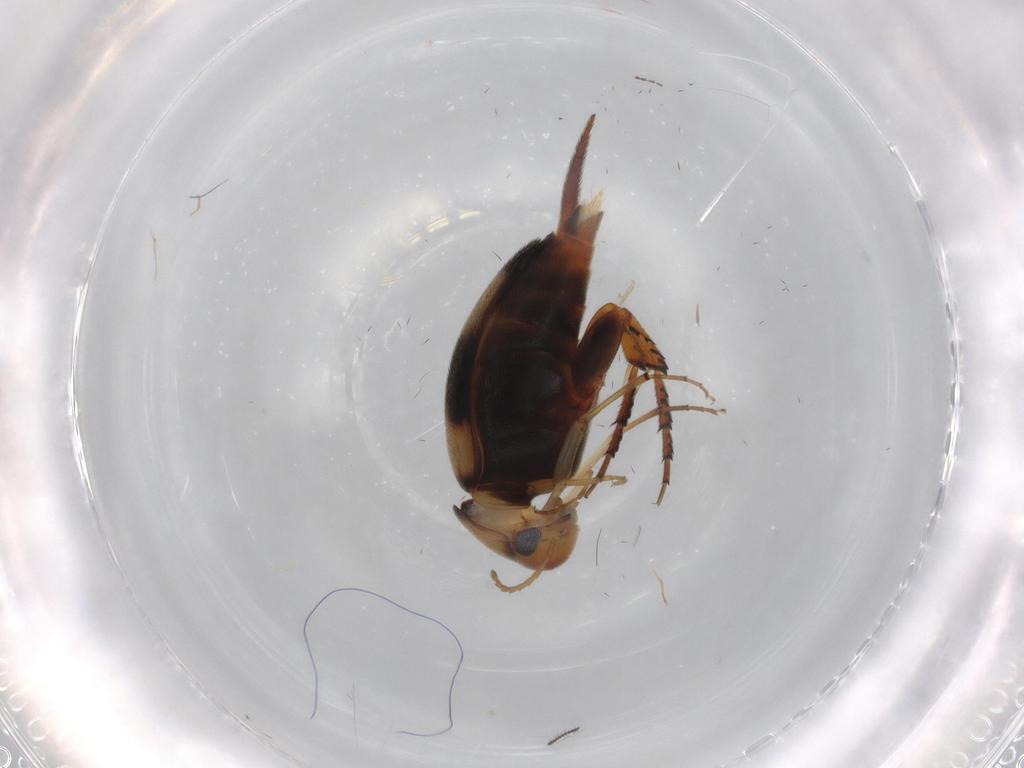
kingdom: Animalia
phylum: Arthropoda
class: Insecta
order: Coleoptera
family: Mordellidae
